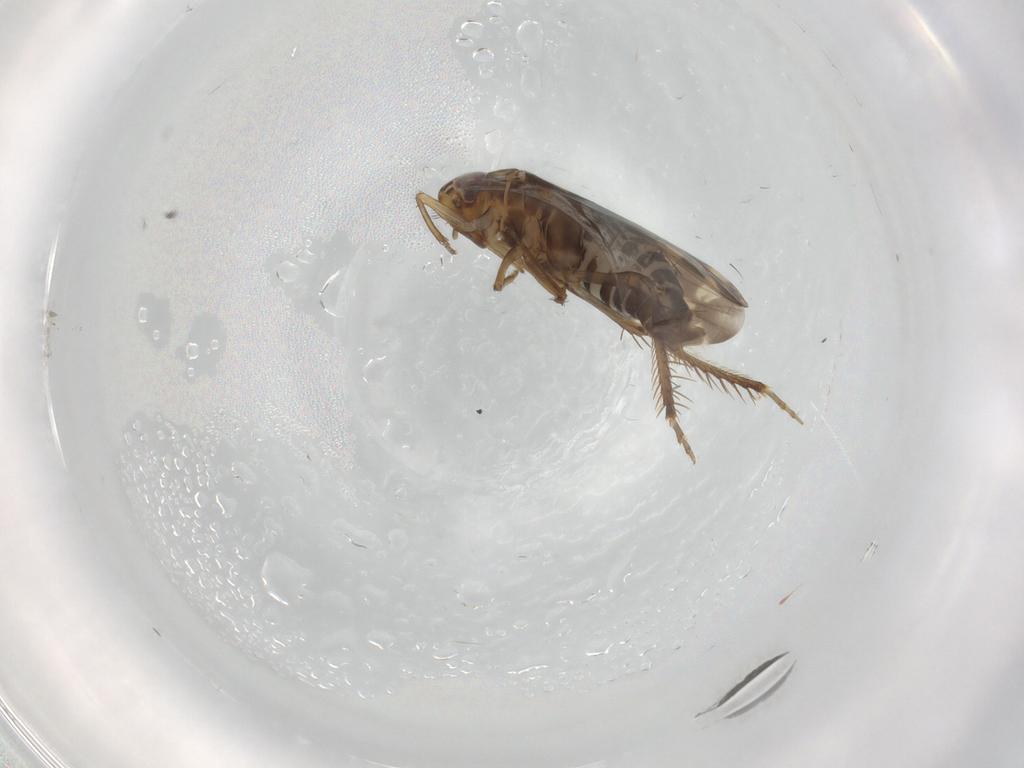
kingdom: Animalia
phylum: Arthropoda
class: Insecta
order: Hemiptera
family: Cicadellidae
